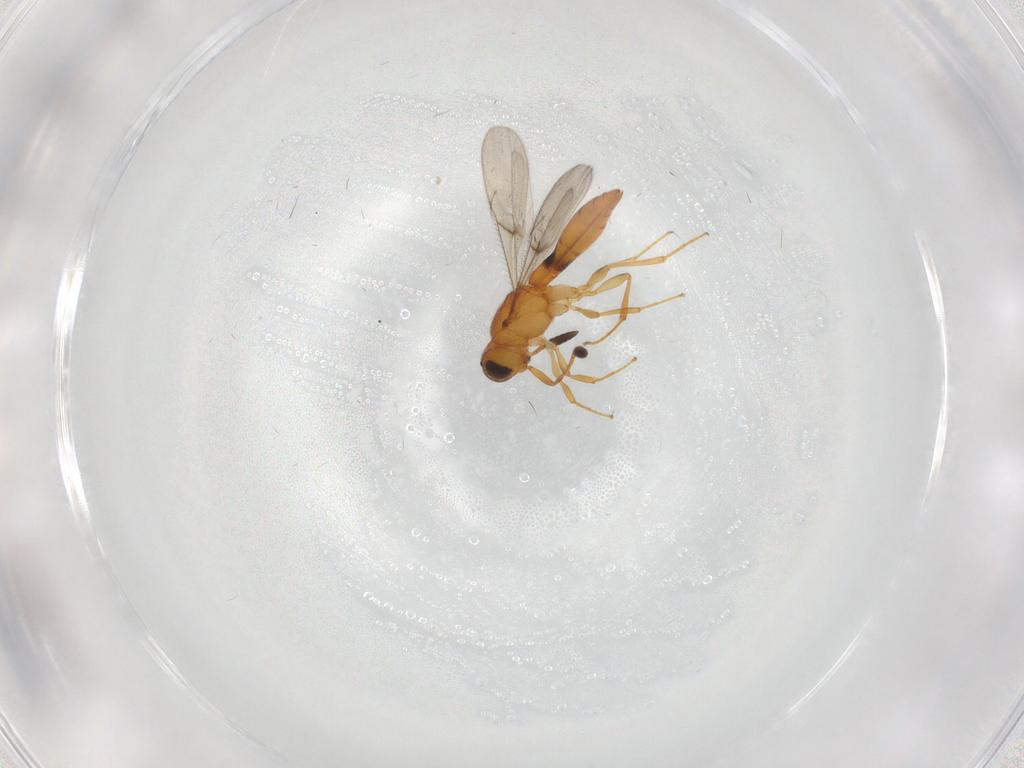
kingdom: Animalia
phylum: Arthropoda
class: Insecta
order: Hymenoptera
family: Scelionidae
